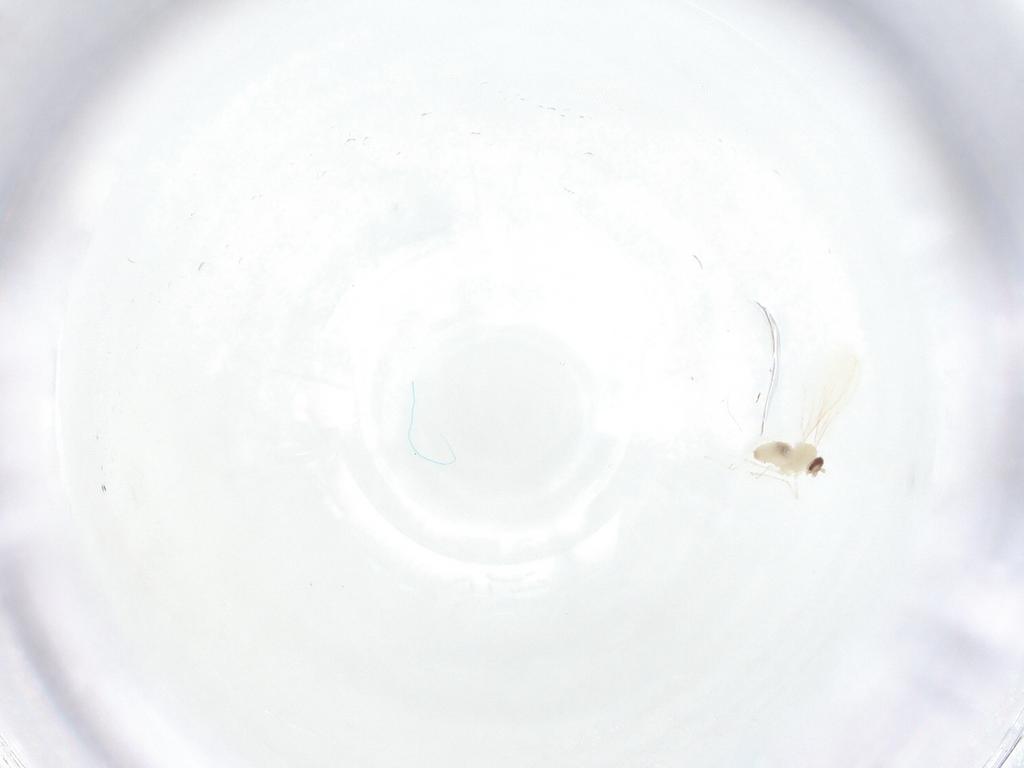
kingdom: Animalia
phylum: Arthropoda
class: Insecta
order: Diptera
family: Cecidomyiidae
